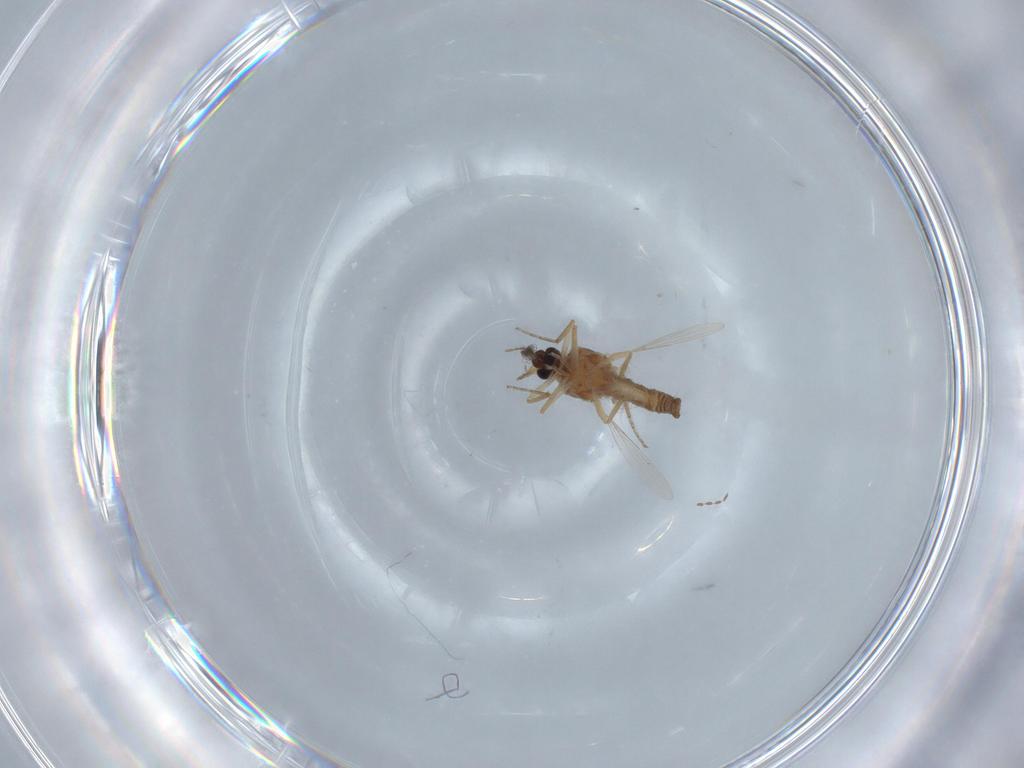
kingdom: Animalia
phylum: Arthropoda
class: Insecta
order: Diptera
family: Ceratopogonidae
